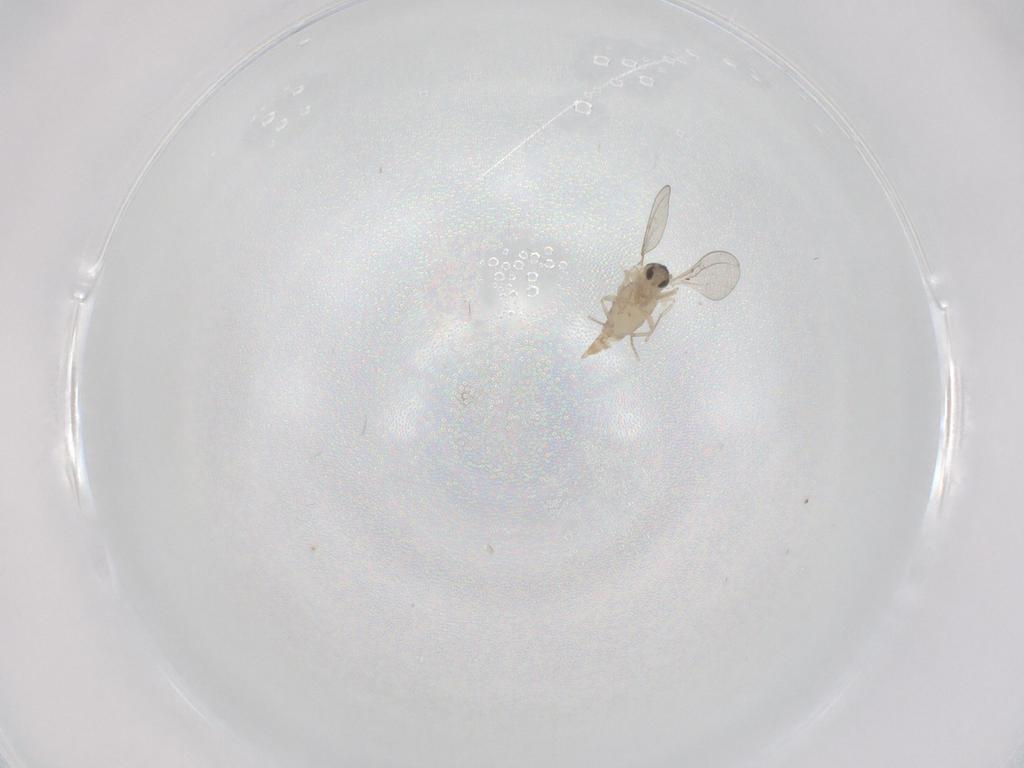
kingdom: Animalia
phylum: Arthropoda
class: Insecta
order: Diptera
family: Cecidomyiidae
